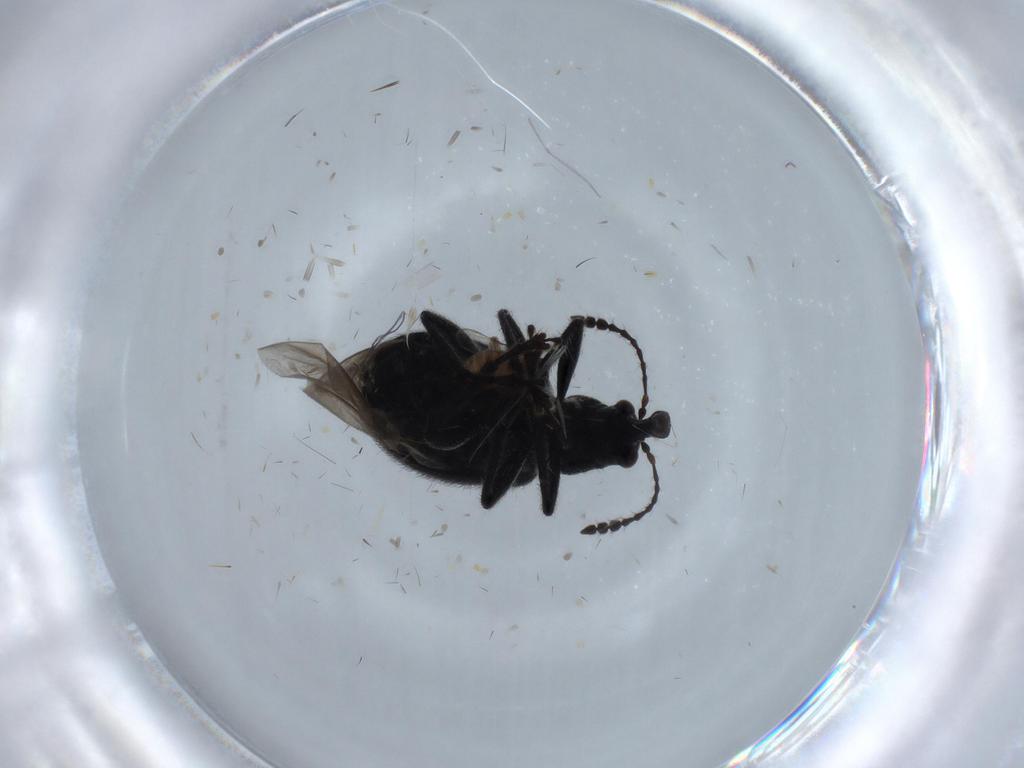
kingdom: Animalia
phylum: Arthropoda
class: Insecta
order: Coleoptera
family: Attelabidae
